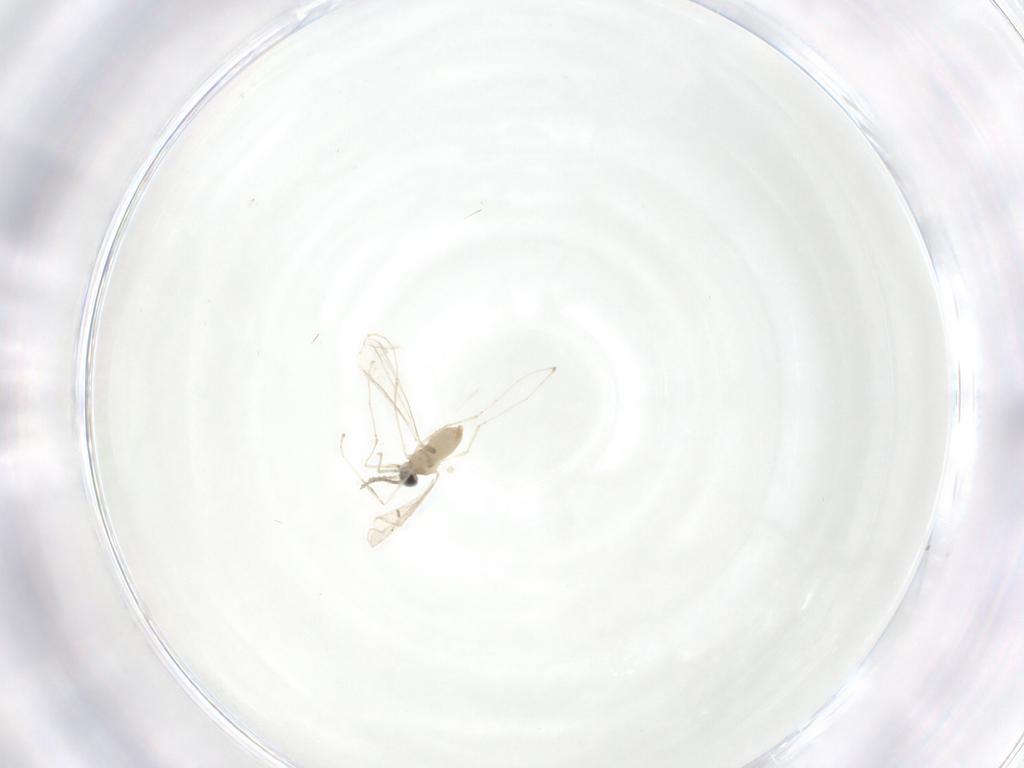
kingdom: Animalia
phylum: Arthropoda
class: Insecta
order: Diptera
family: Cecidomyiidae
